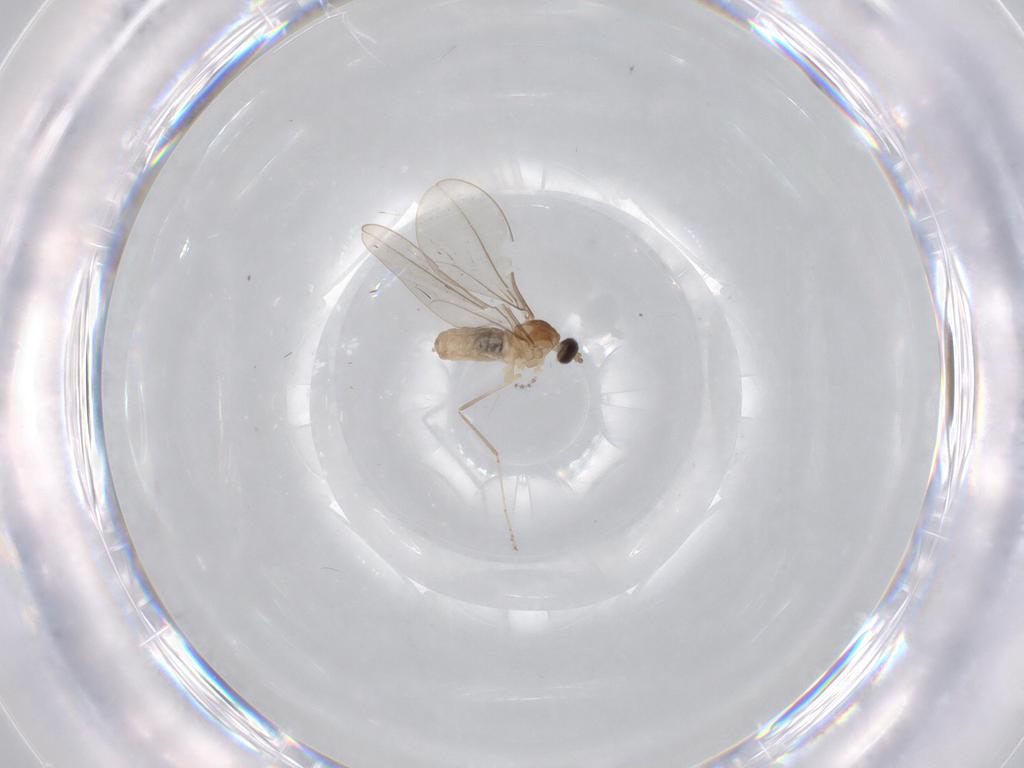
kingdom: Animalia
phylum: Arthropoda
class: Insecta
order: Diptera
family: Cecidomyiidae
